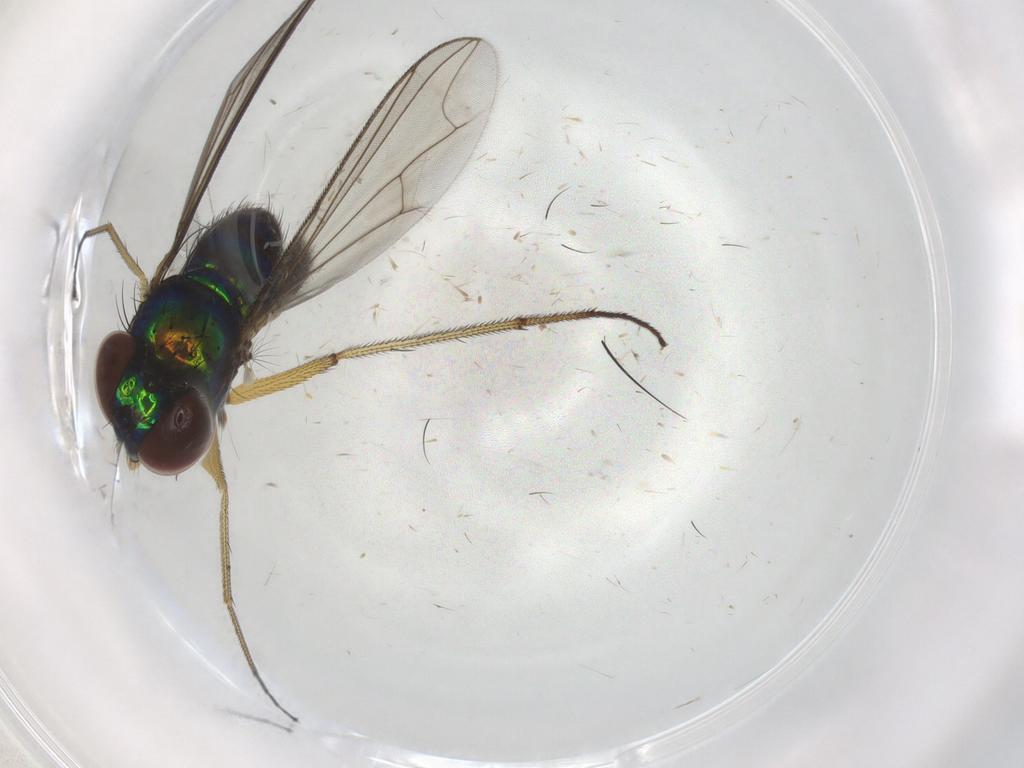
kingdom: Animalia
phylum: Arthropoda
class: Insecta
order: Diptera
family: Dolichopodidae
